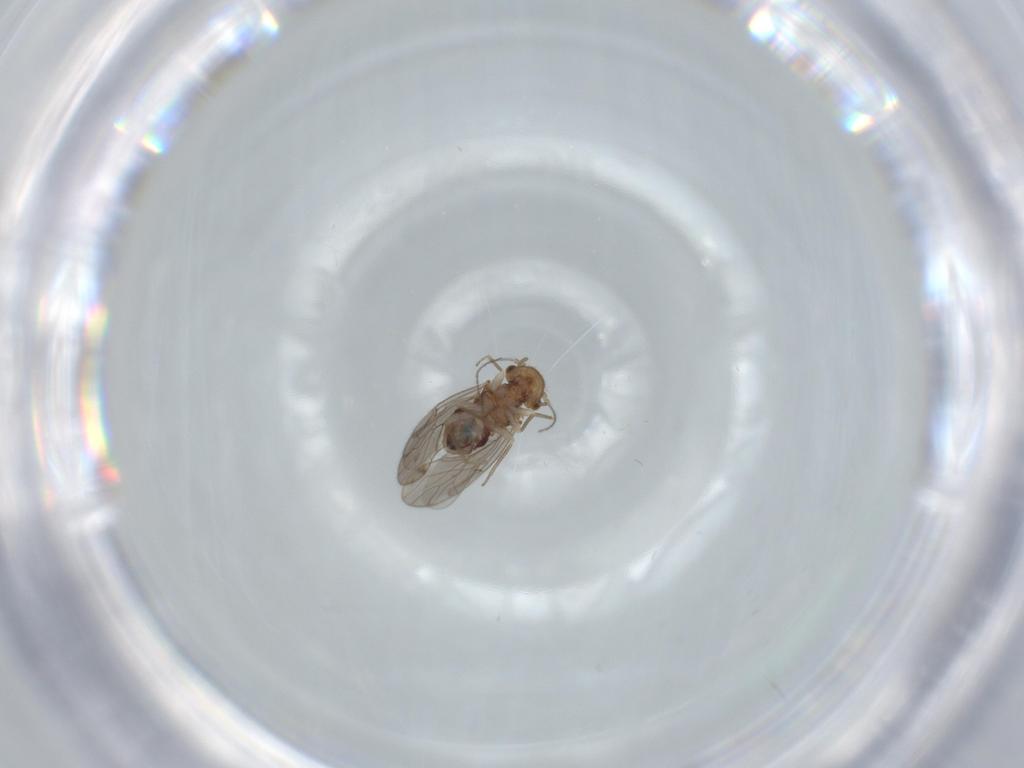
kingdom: Animalia
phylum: Arthropoda
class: Insecta
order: Psocodea
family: Ectopsocidae
